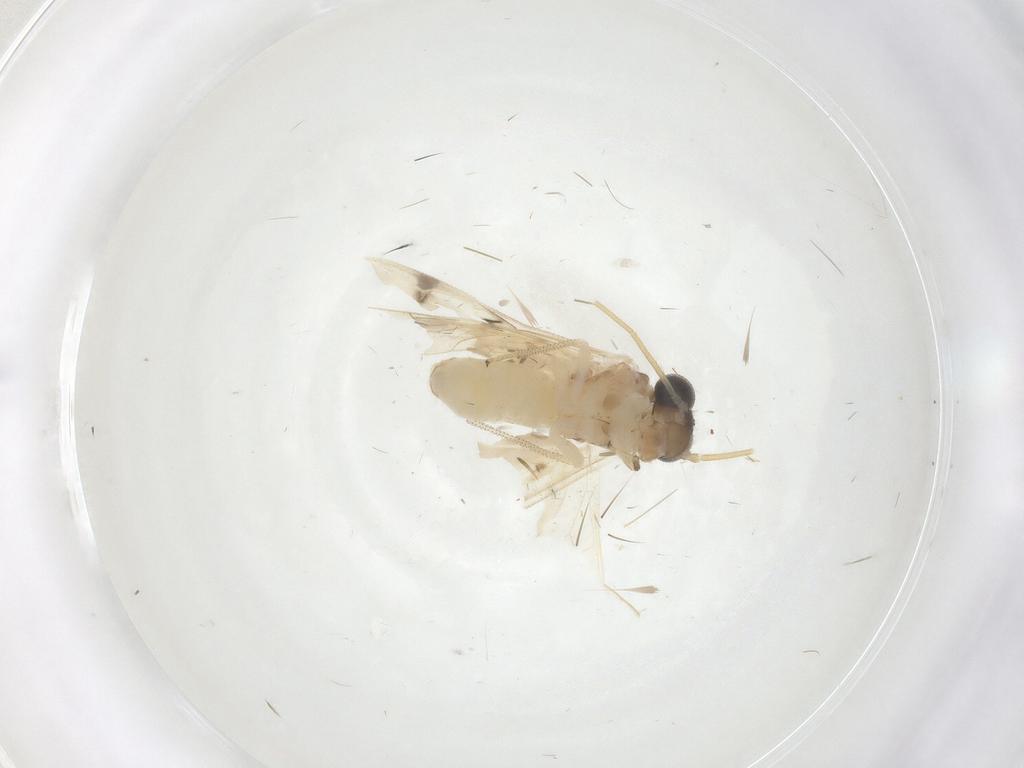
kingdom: Animalia
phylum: Arthropoda
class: Insecta
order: Psocodea
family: Caeciliusidae
